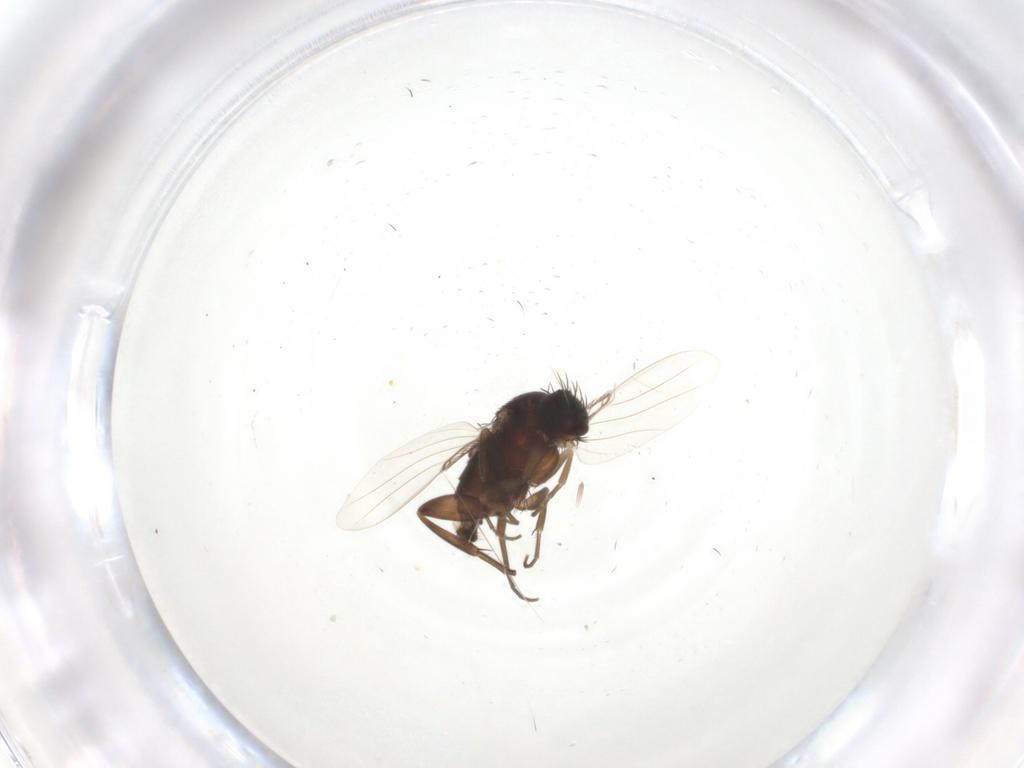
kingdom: Animalia
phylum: Arthropoda
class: Insecta
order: Diptera
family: Phoridae
